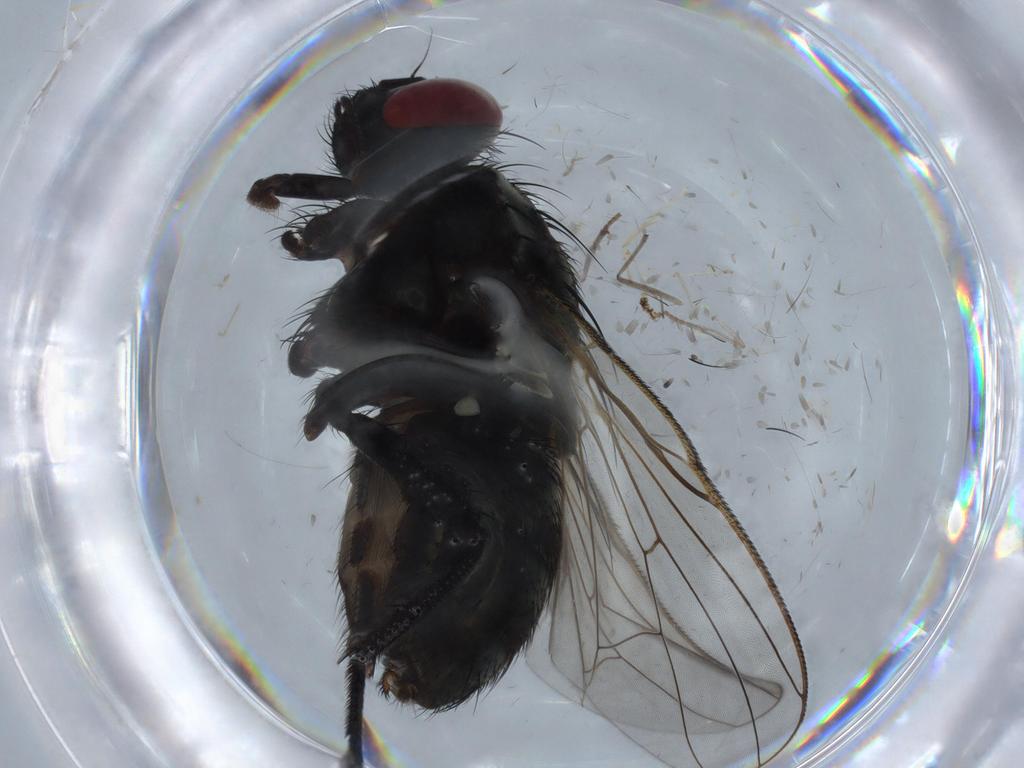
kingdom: Animalia
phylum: Arthropoda
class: Insecta
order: Diptera
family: Muscidae
